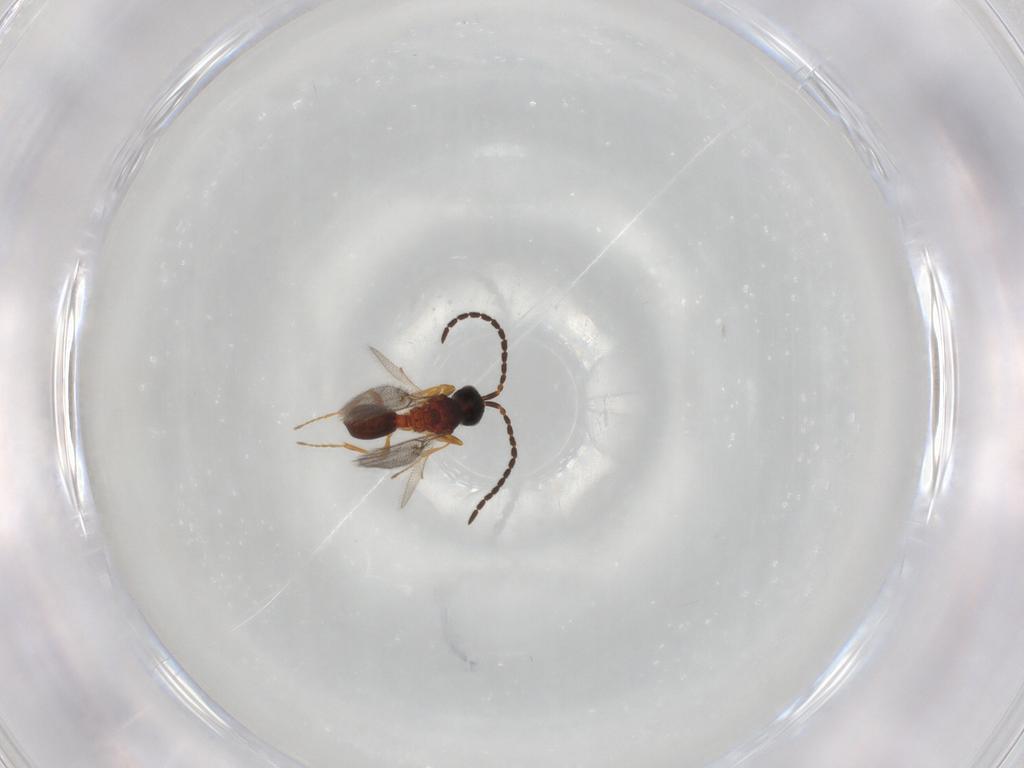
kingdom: Animalia
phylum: Arthropoda
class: Insecta
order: Hymenoptera
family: Diapriidae
